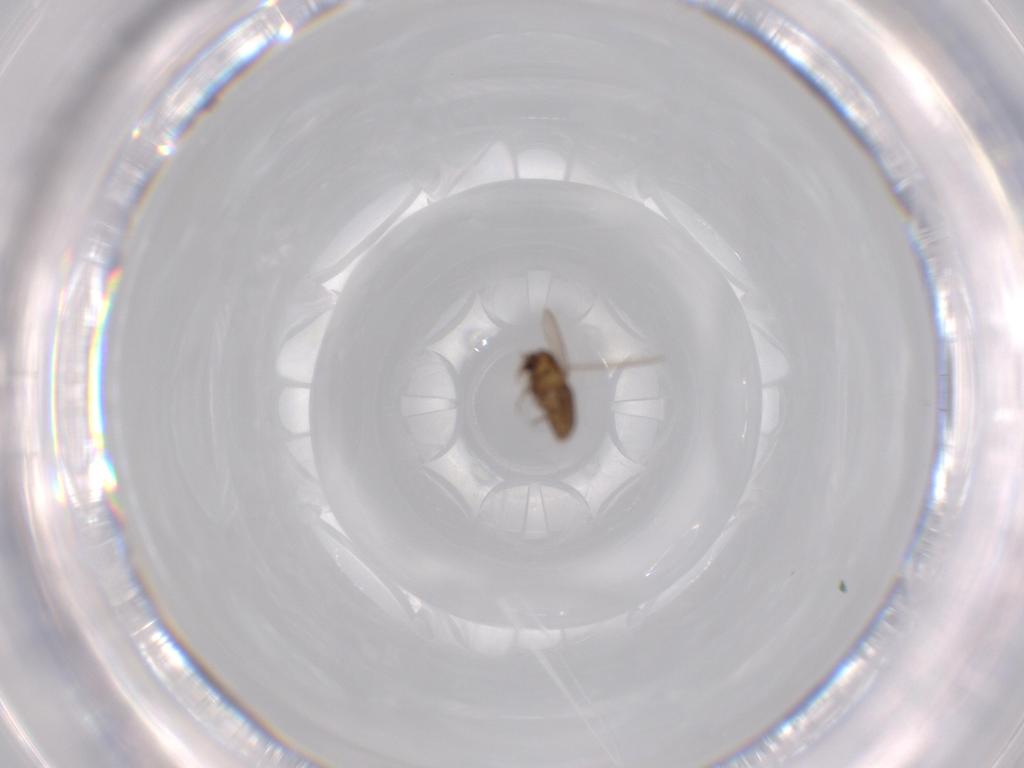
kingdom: Animalia
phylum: Arthropoda
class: Insecta
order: Diptera
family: Chironomidae
